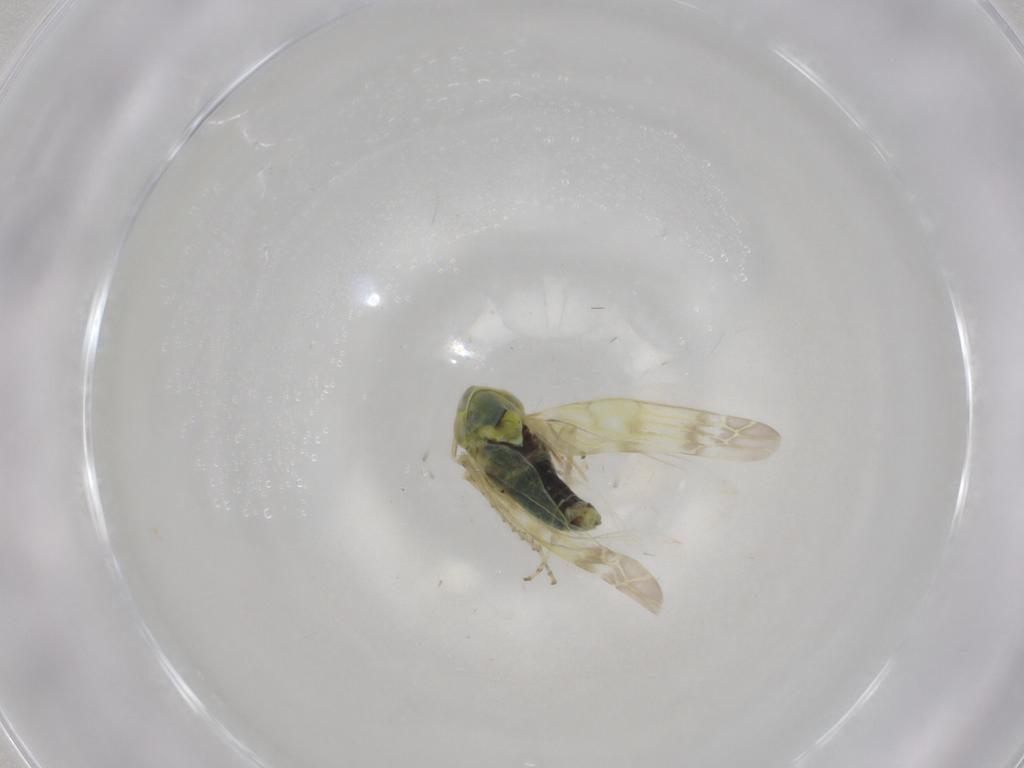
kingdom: Animalia
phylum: Arthropoda
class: Insecta
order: Hemiptera
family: Cicadellidae
